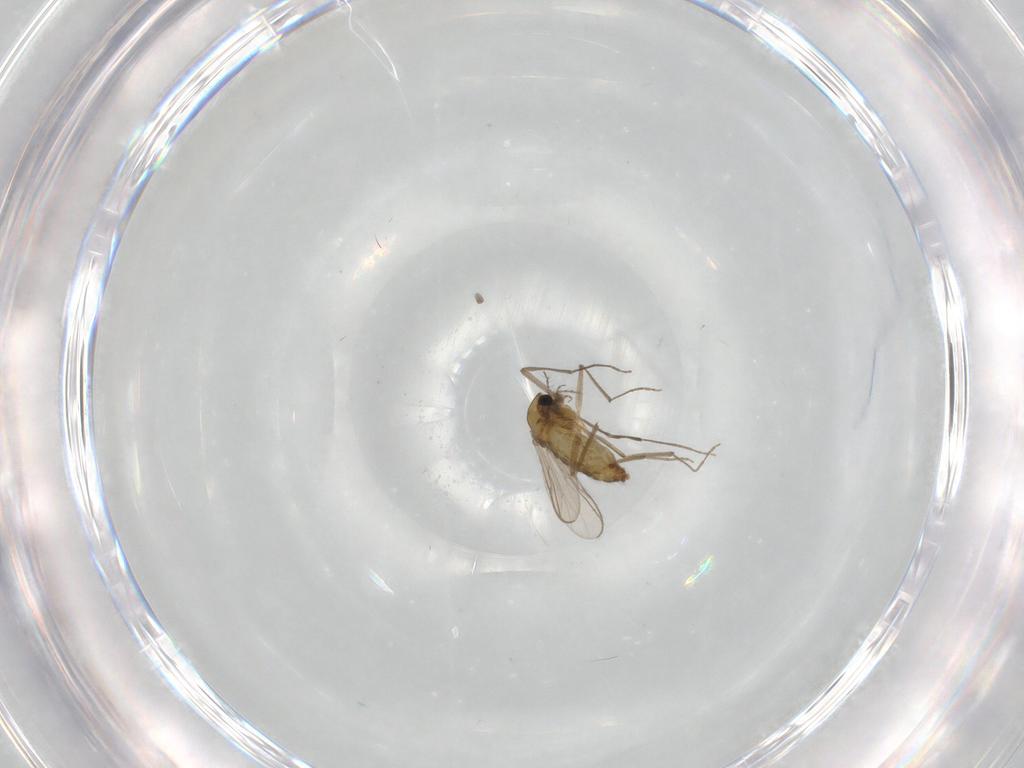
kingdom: Animalia
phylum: Arthropoda
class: Insecta
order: Diptera
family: Chironomidae
